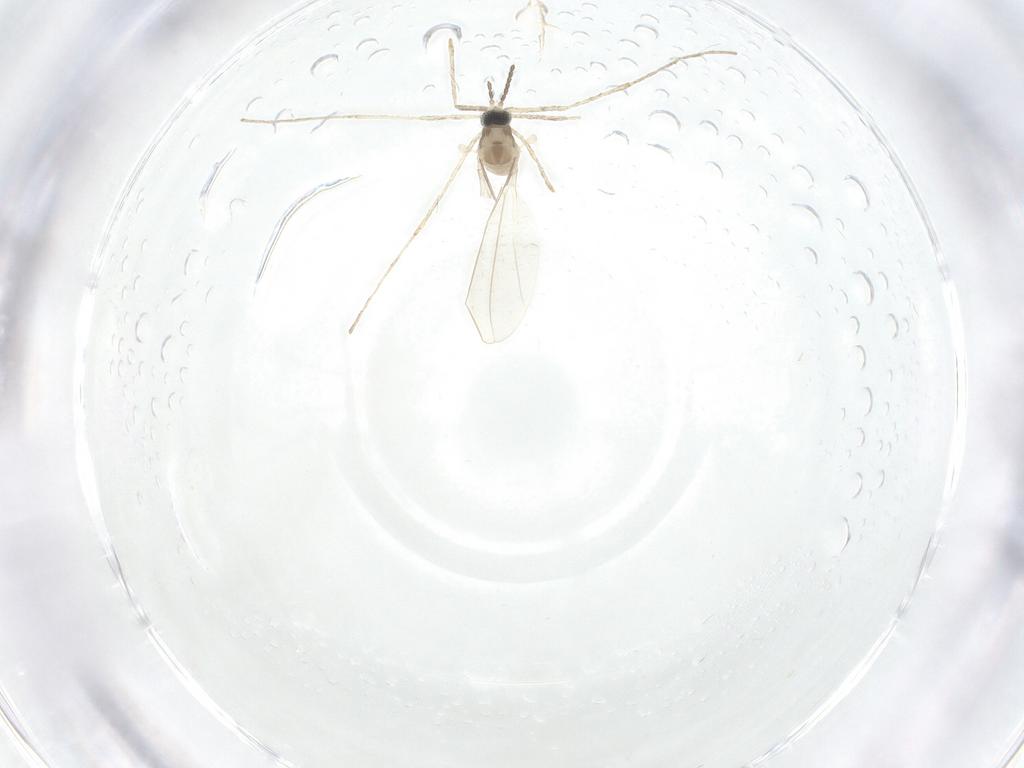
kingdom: Animalia
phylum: Arthropoda
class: Insecta
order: Diptera
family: Cecidomyiidae
